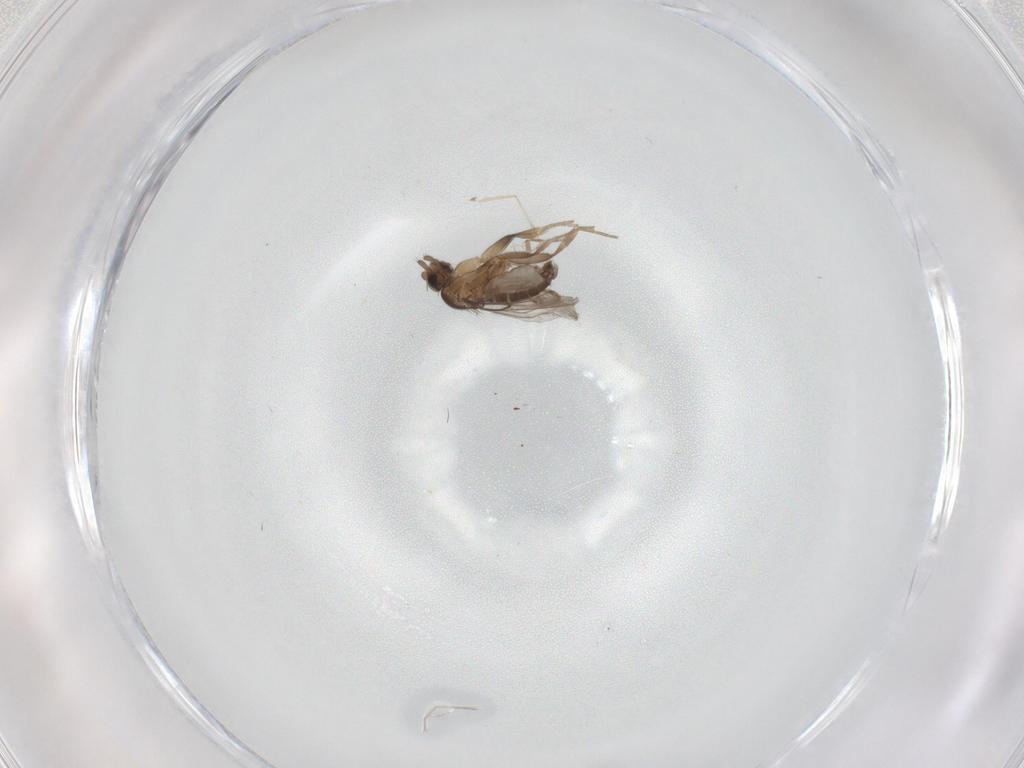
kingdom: Animalia
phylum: Arthropoda
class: Insecta
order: Diptera
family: Phoridae
